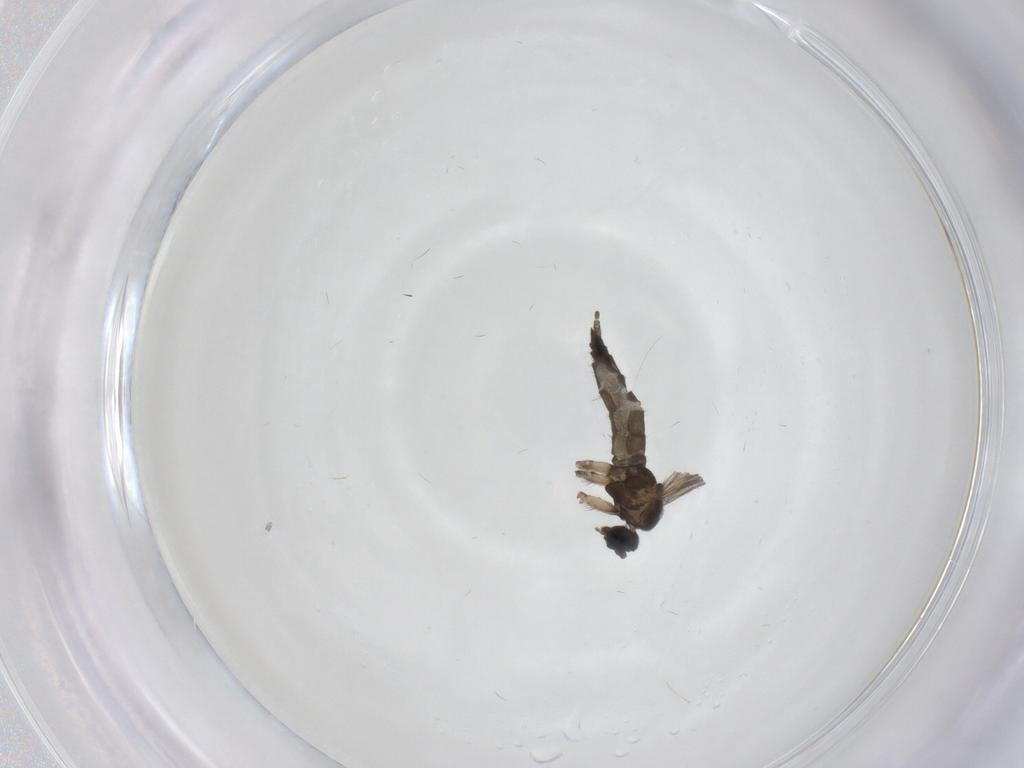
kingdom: Animalia
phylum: Arthropoda
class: Insecta
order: Diptera
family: Sciaridae
